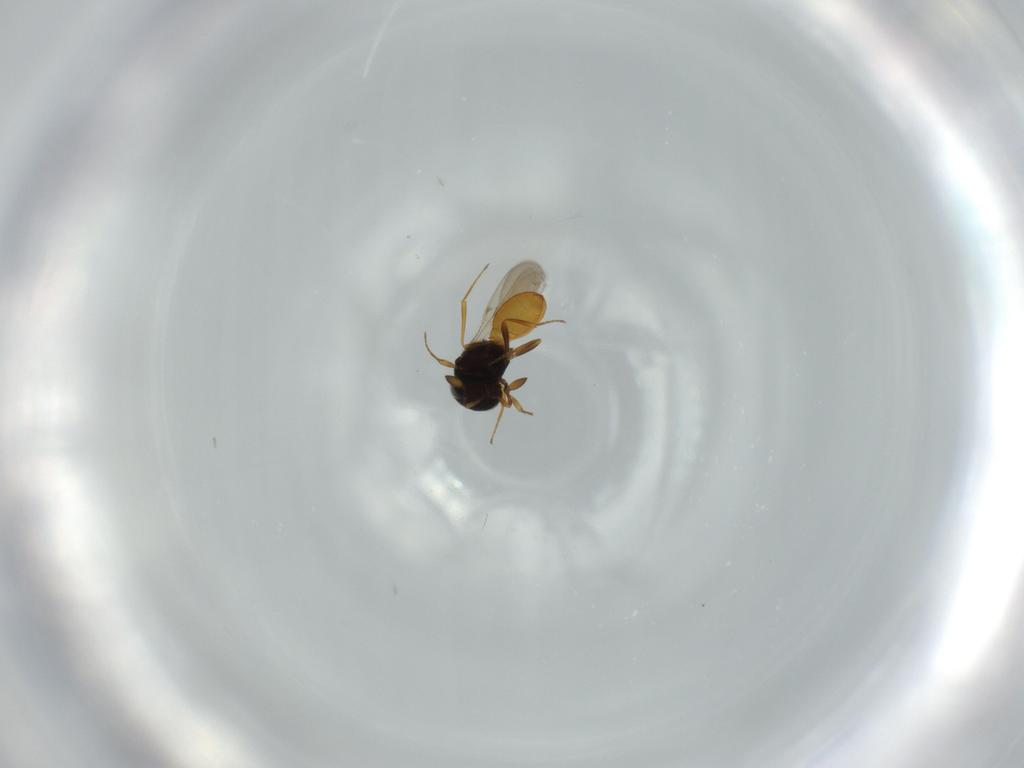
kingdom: Animalia
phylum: Arthropoda
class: Insecta
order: Hymenoptera
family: Scelionidae
